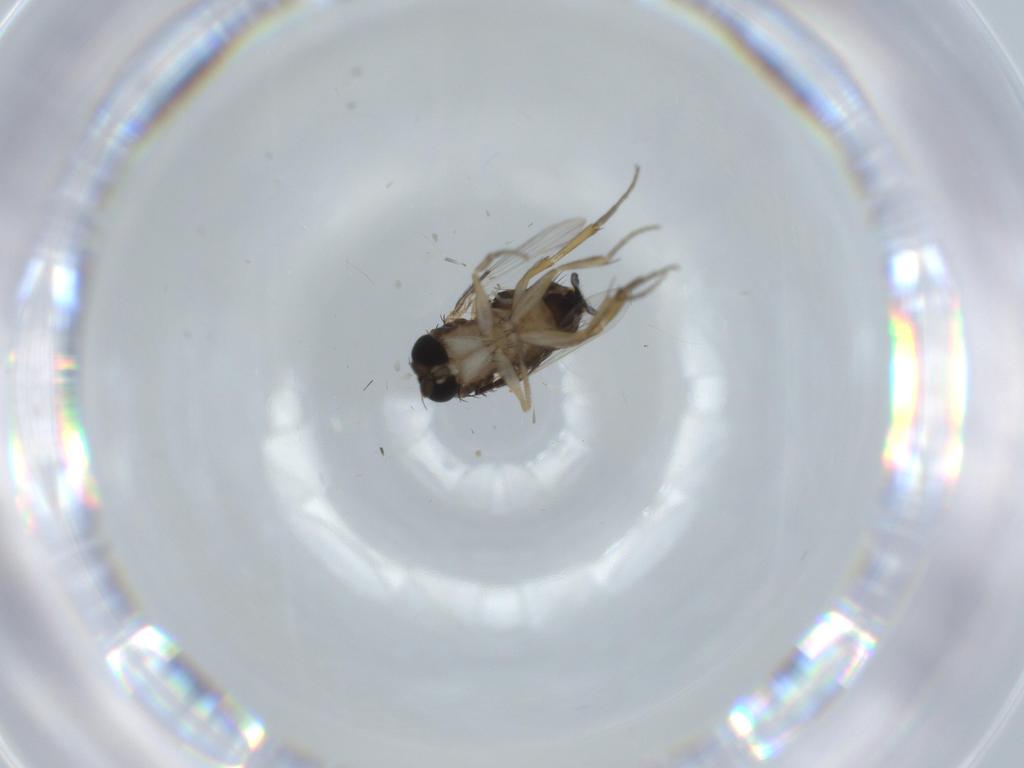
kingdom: Animalia
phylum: Arthropoda
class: Insecta
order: Diptera
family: Phoridae
